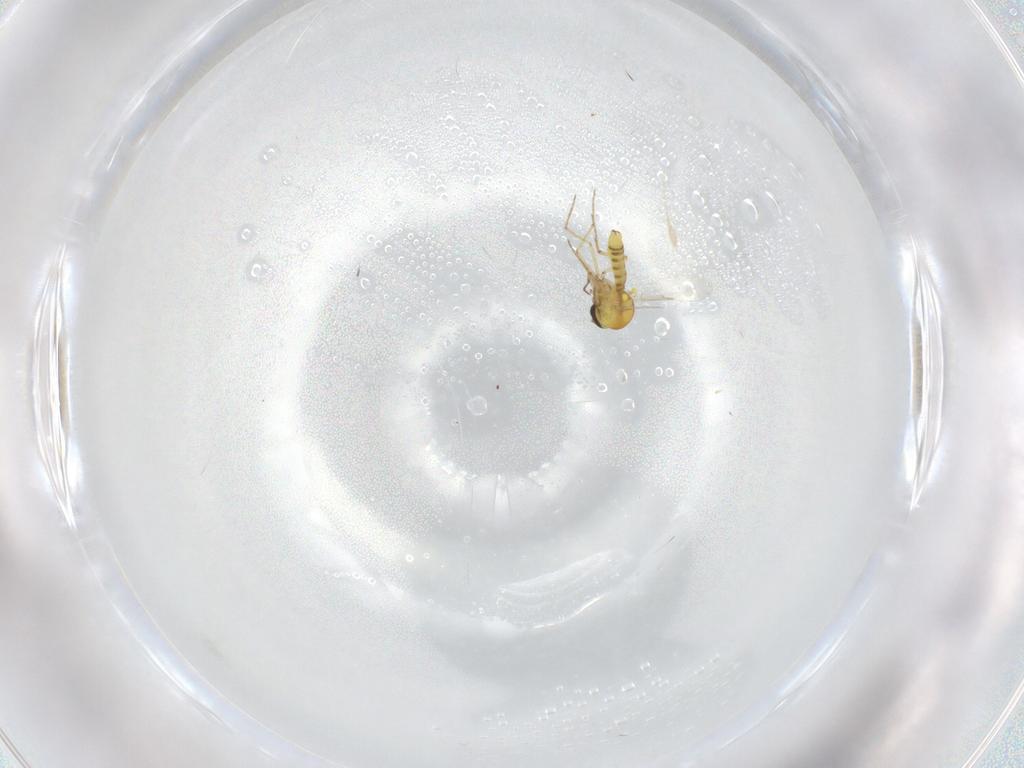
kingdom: Animalia
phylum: Arthropoda
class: Insecta
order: Diptera
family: Ceratopogonidae
